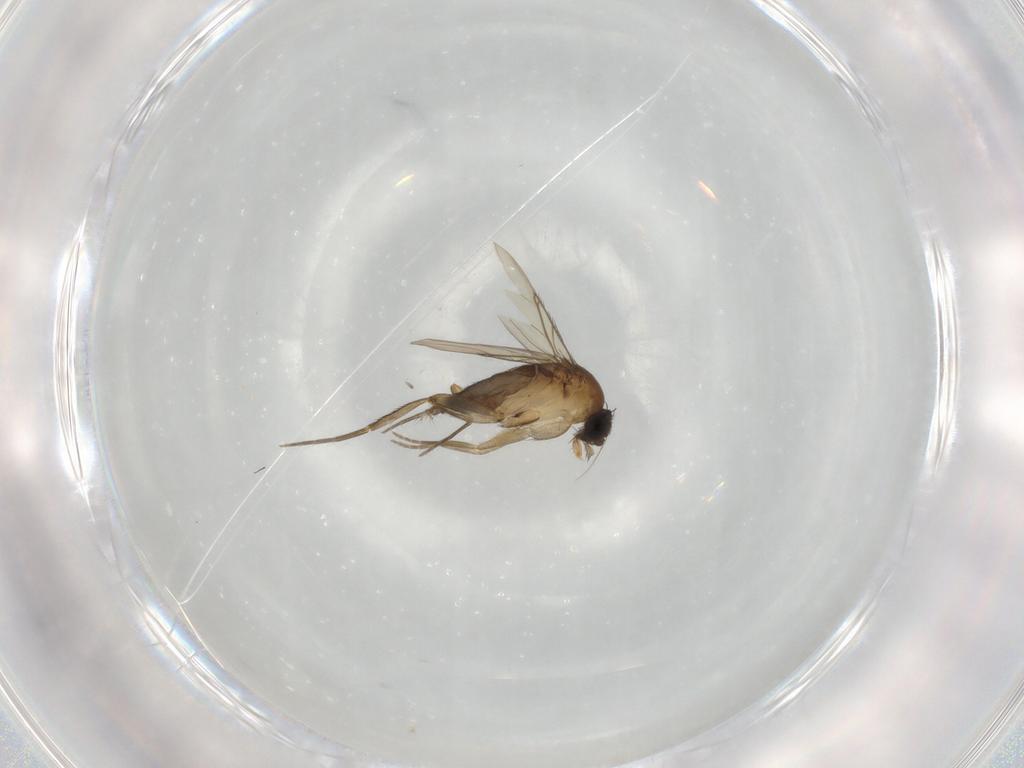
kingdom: Animalia
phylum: Arthropoda
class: Insecta
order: Diptera
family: Phoridae
